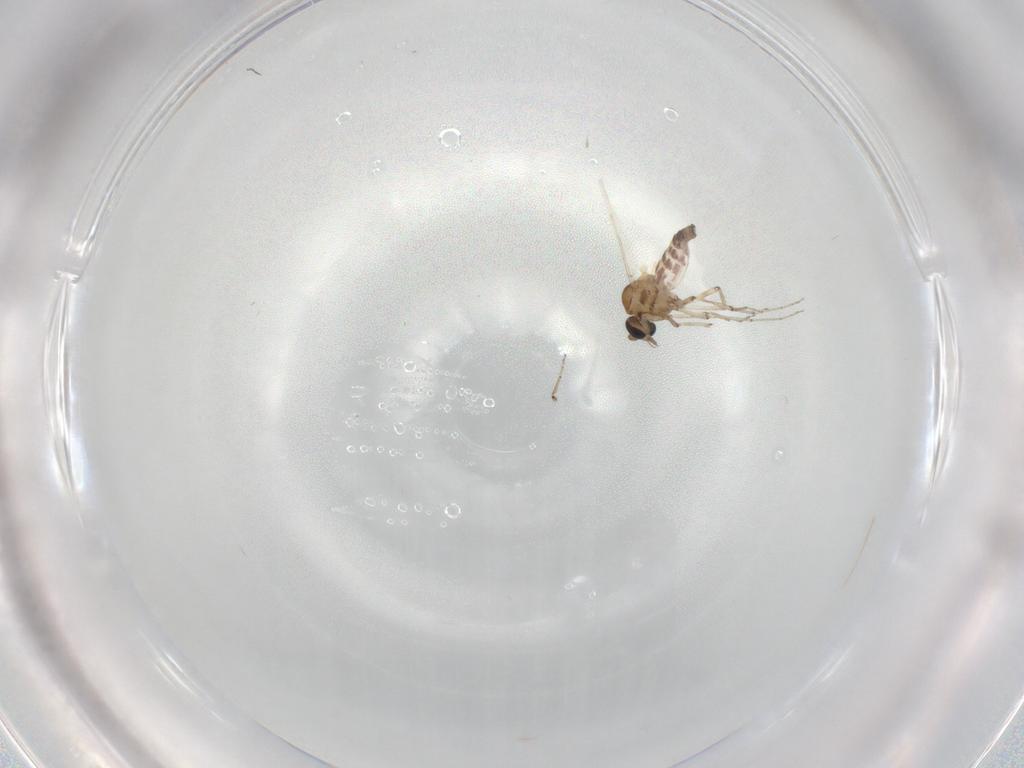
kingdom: Animalia
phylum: Arthropoda
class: Insecta
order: Diptera
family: Ceratopogonidae
